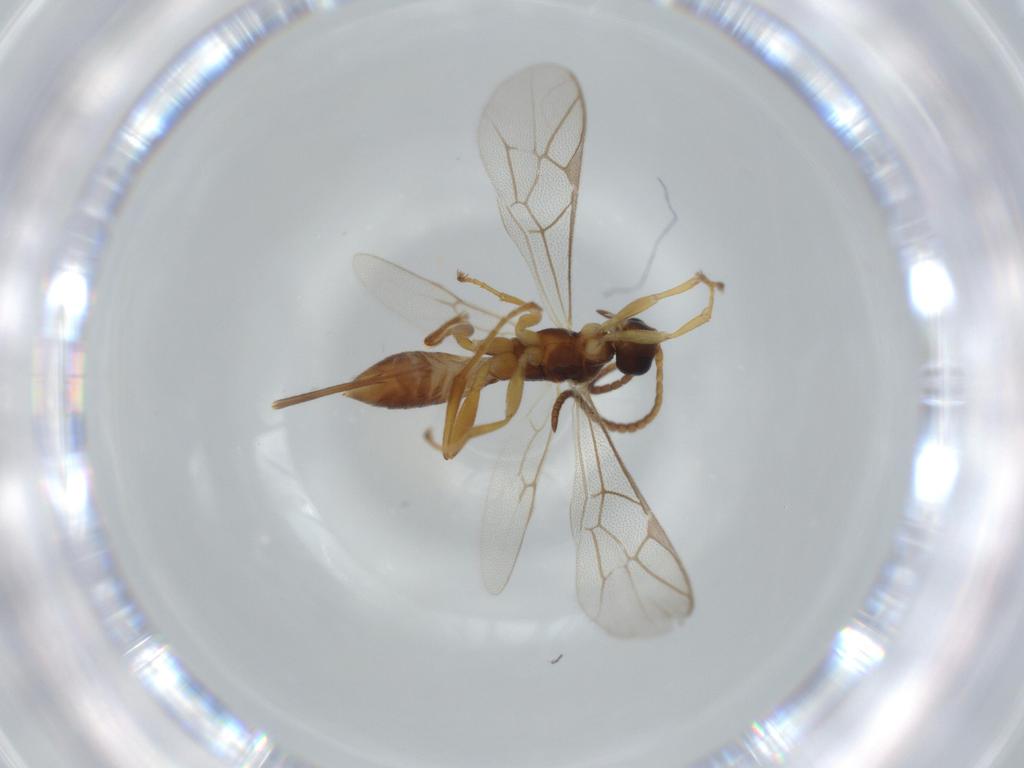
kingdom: Animalia
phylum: Arthropoda
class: Insecta
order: Hymenoptera
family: Ichneumonidae
